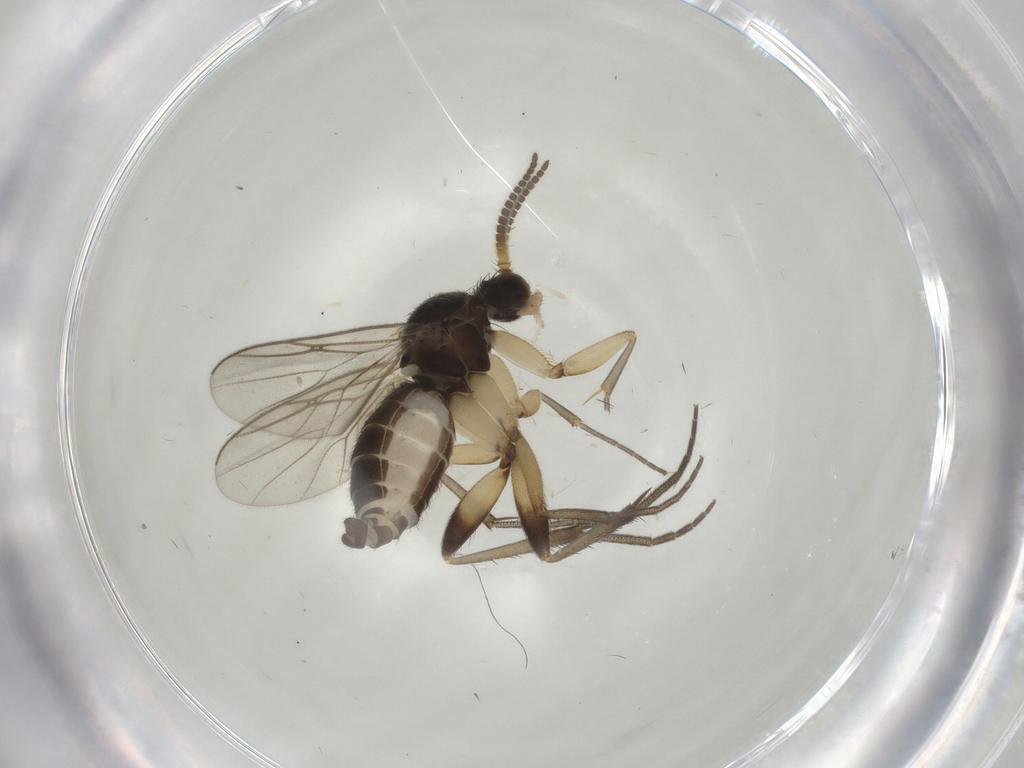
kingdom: Animalia
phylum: Arthropoda
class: Insecta
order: Diptera
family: Mycetophilidae
